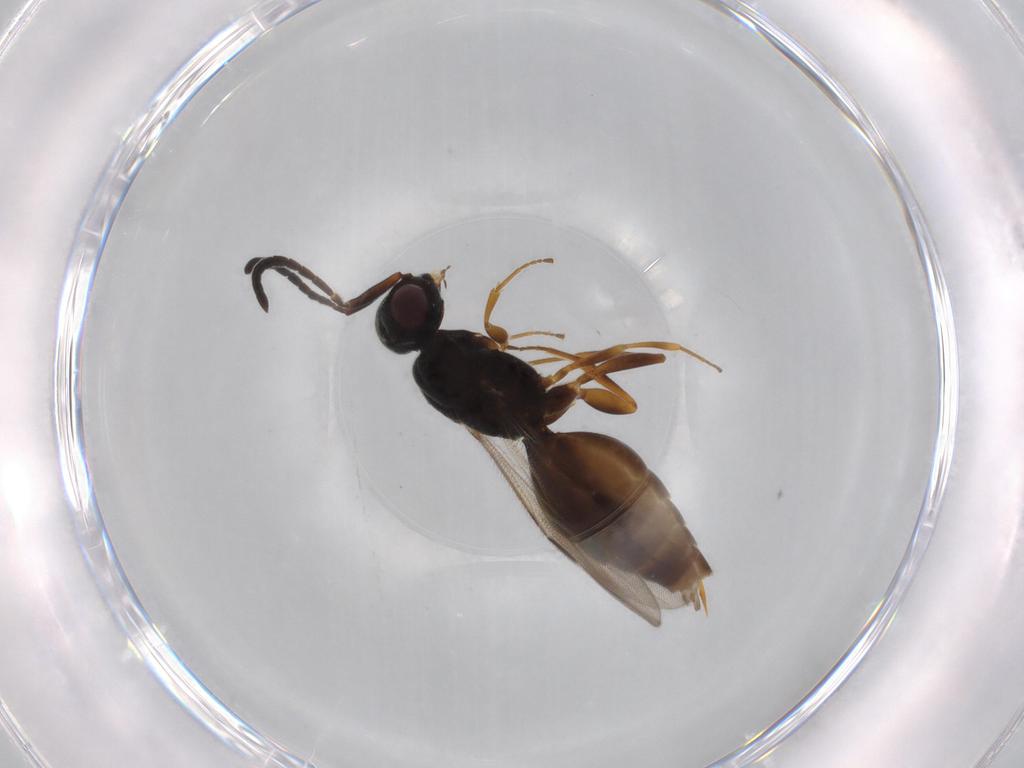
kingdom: Animalia
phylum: Arthropoda
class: Insecta
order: Hymenoptera
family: Megaspilidae
